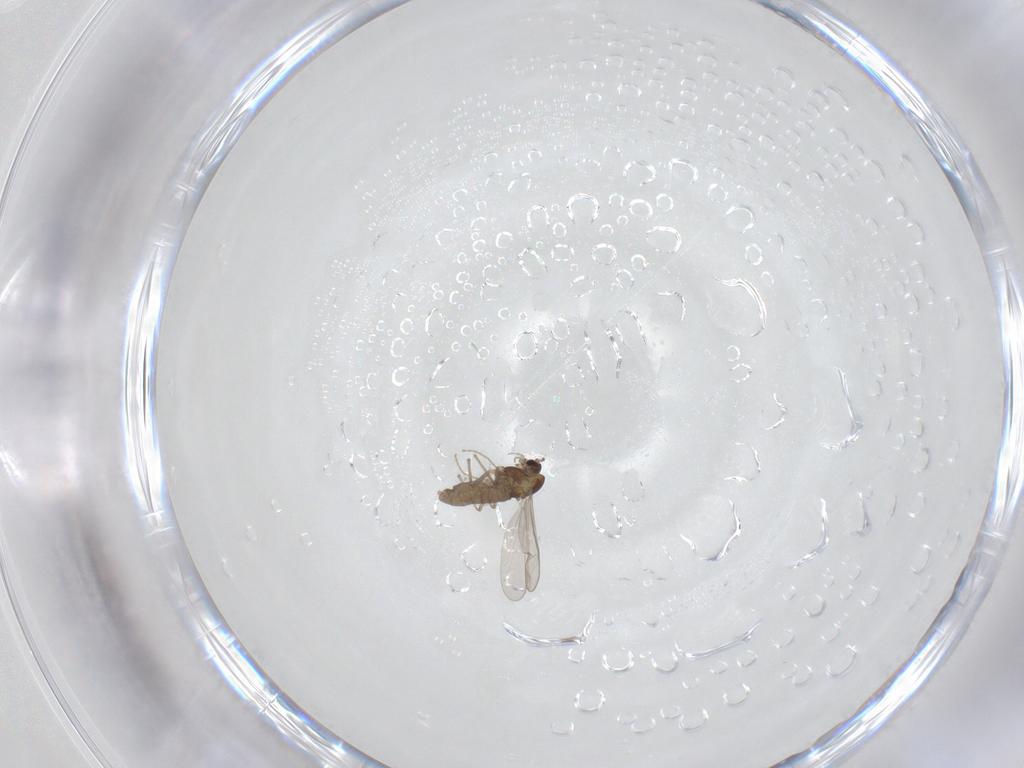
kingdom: Animalia
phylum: Arthropoda
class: Insecta
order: Diptera
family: Chironomidae
